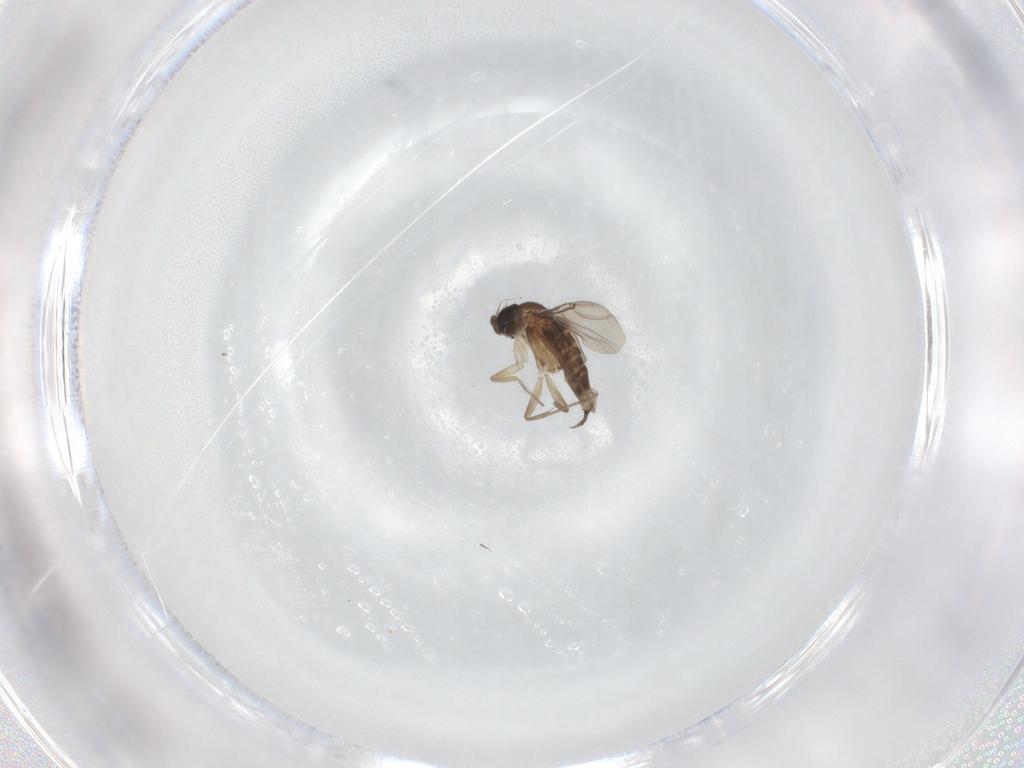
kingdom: Animalia
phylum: Arthropoda
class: Insecta
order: Diptera
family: Phoridae
